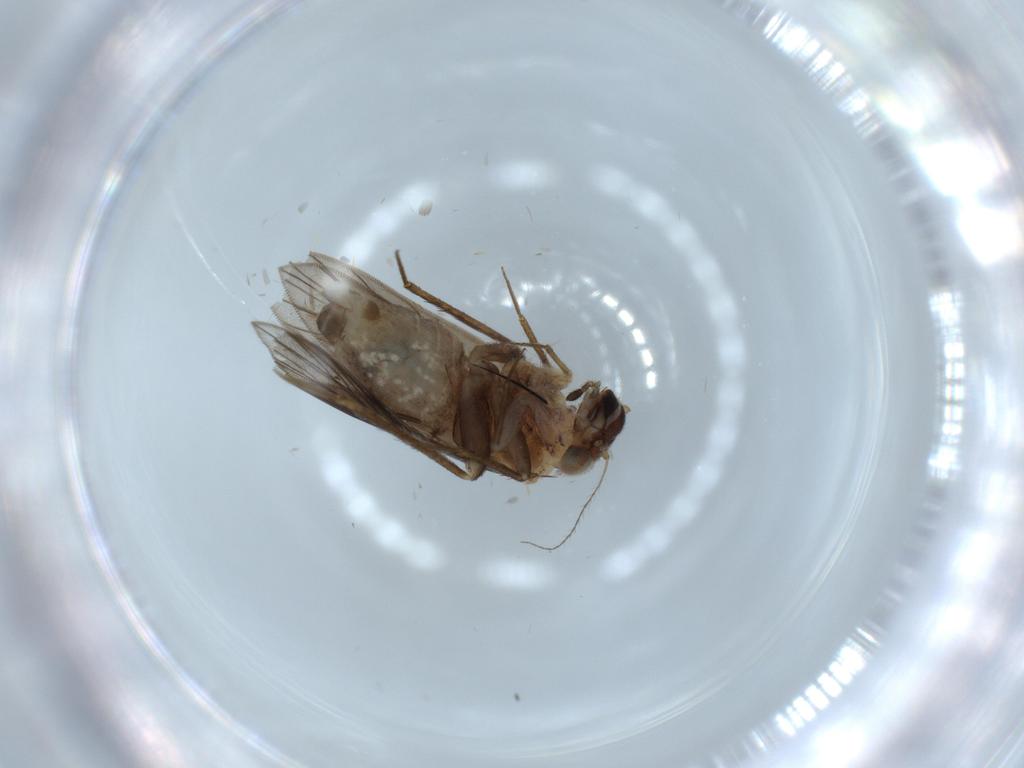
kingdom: Animalia
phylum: Arthropoda
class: Insecta
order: Psocodea
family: Lepidopsocidae
